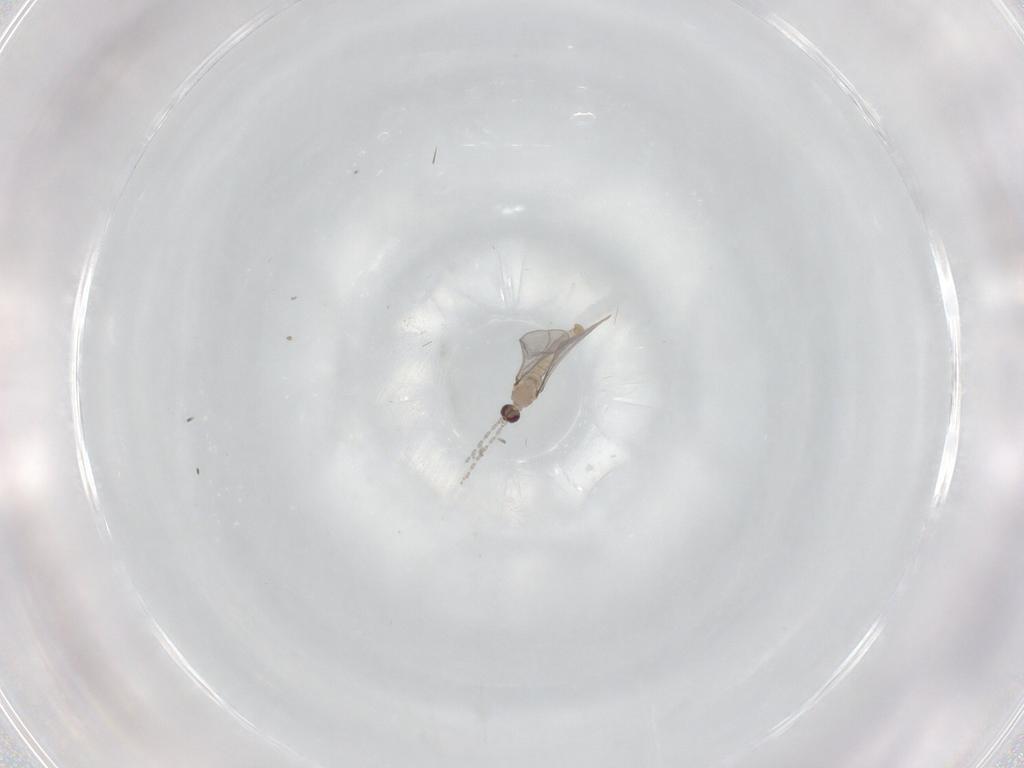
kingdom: Animalia
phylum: Arthropoda
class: Insecta
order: Diptera
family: Cecidomyiidae
